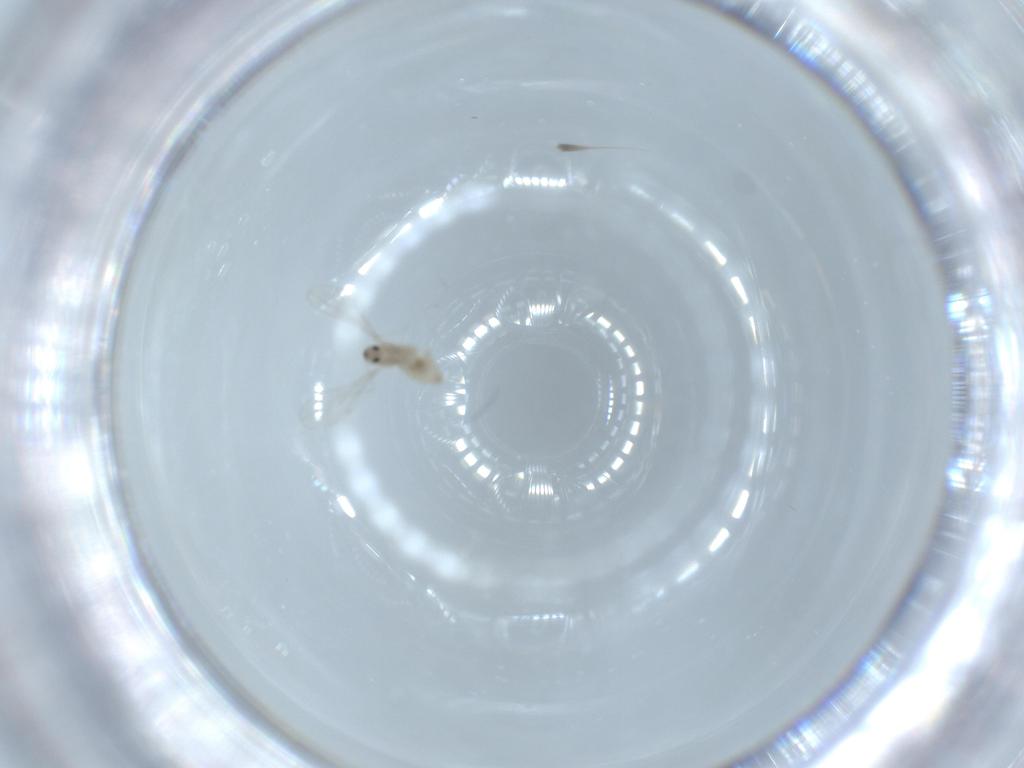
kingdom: Animalia
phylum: Arthropoda
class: Insecta
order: Diptera
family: Cecidomyiidae
